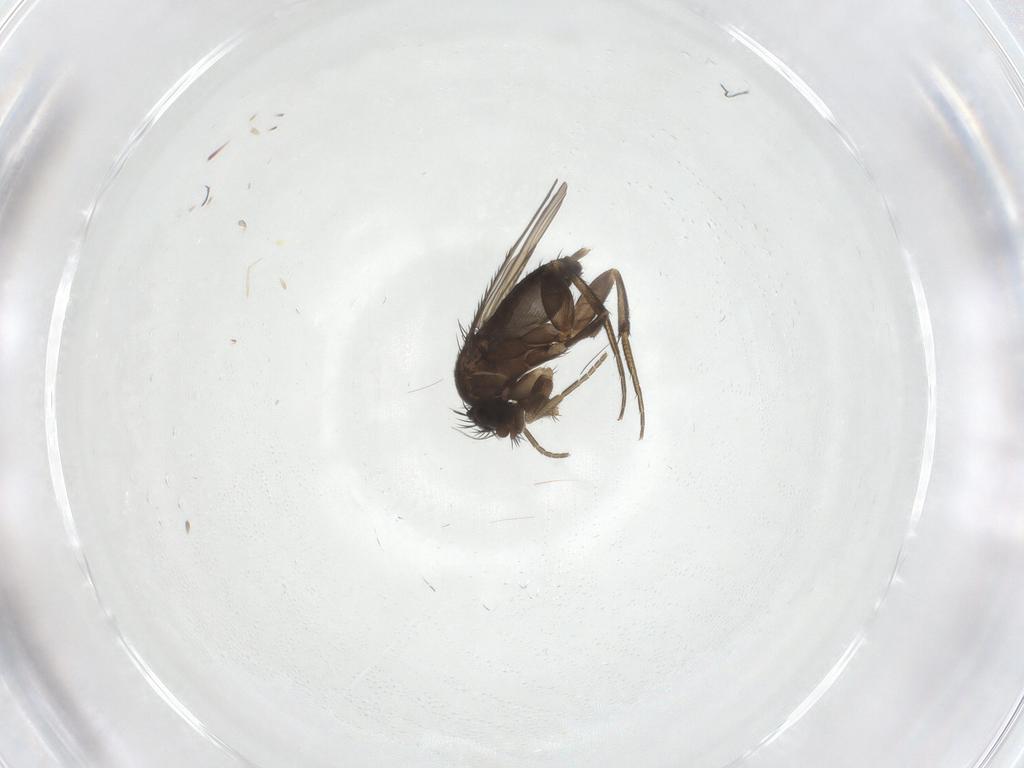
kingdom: Animalia
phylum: Arthropoda
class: Insecta
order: Diptera
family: Phoridae
